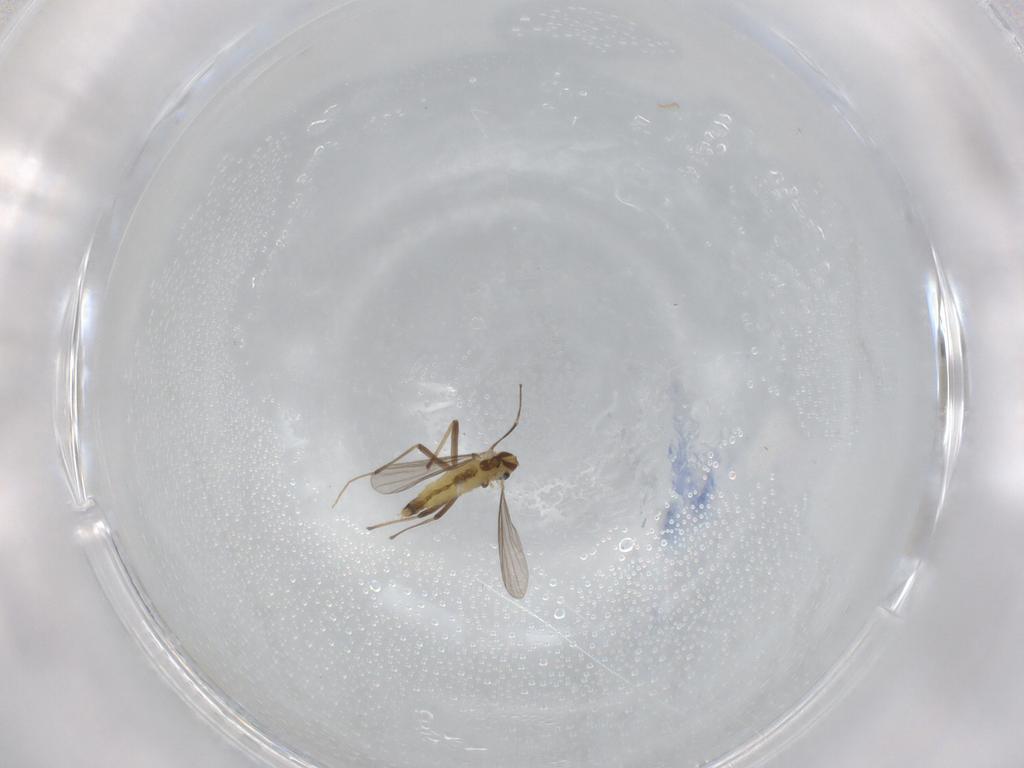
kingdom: Animalia
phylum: Arthropoda
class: Insecta
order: Diptera
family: Chironomidae
